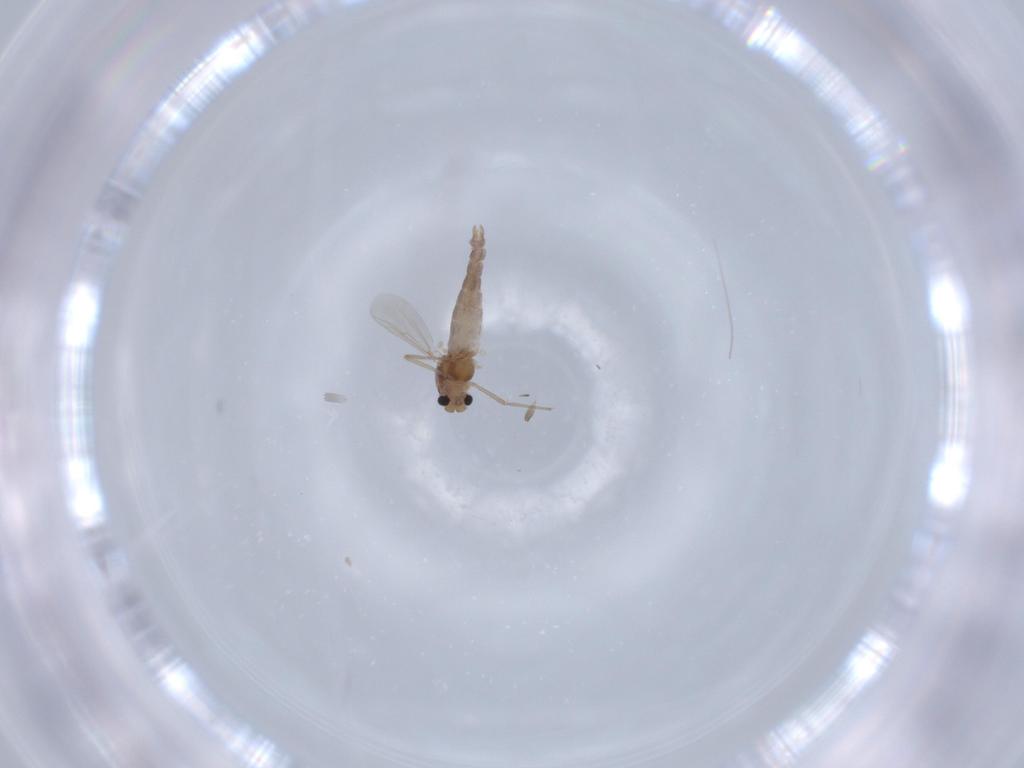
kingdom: Animalia
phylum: Arthropoda
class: Insecta
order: Diptera
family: Chironomidae
